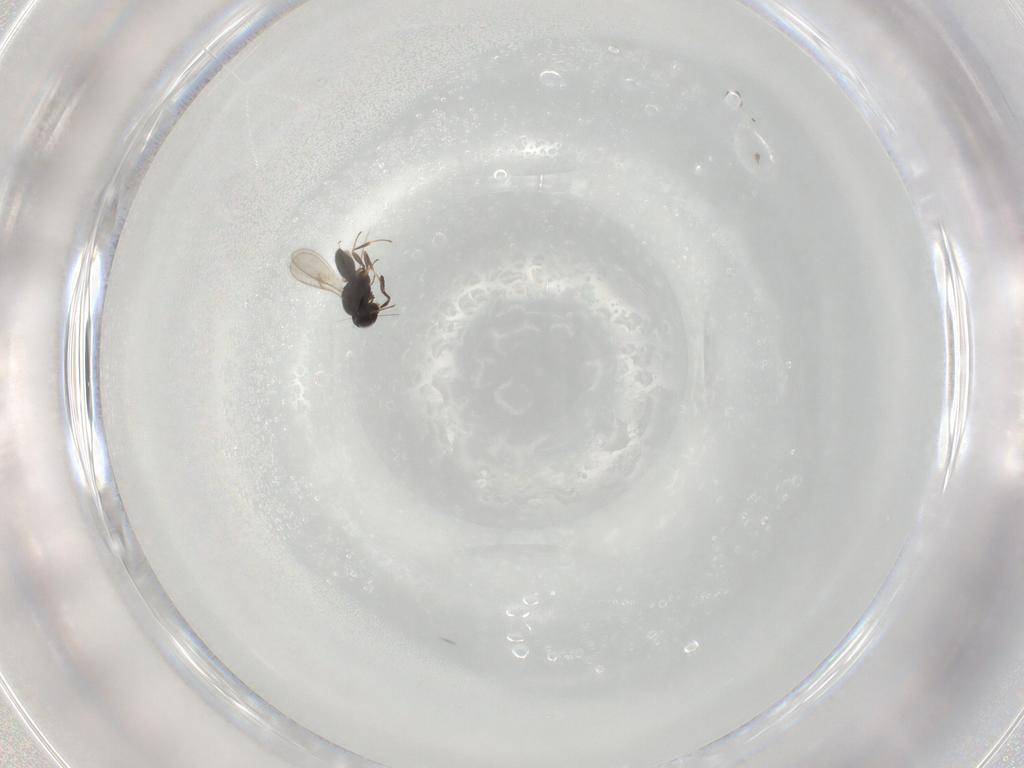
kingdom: Animalia
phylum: Arthropoda
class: Insecta
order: Hymenoptera
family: Scelionidae
